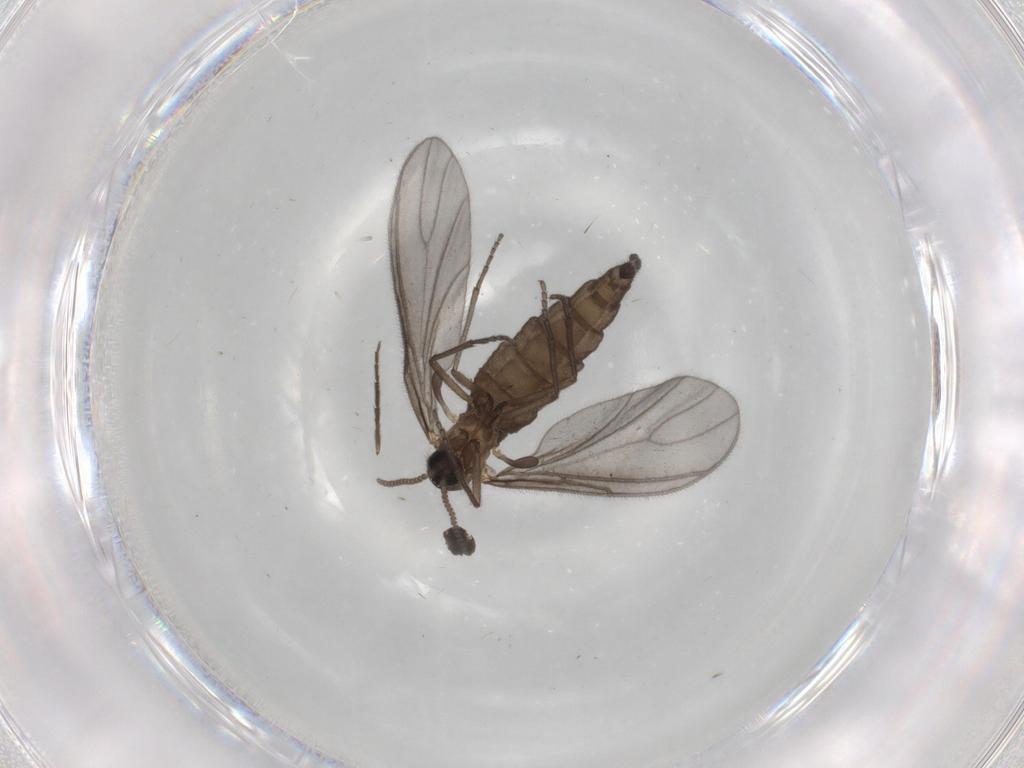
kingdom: Animalia
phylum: Arthropoda
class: Insecta
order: Diptera
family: Sciaridae
